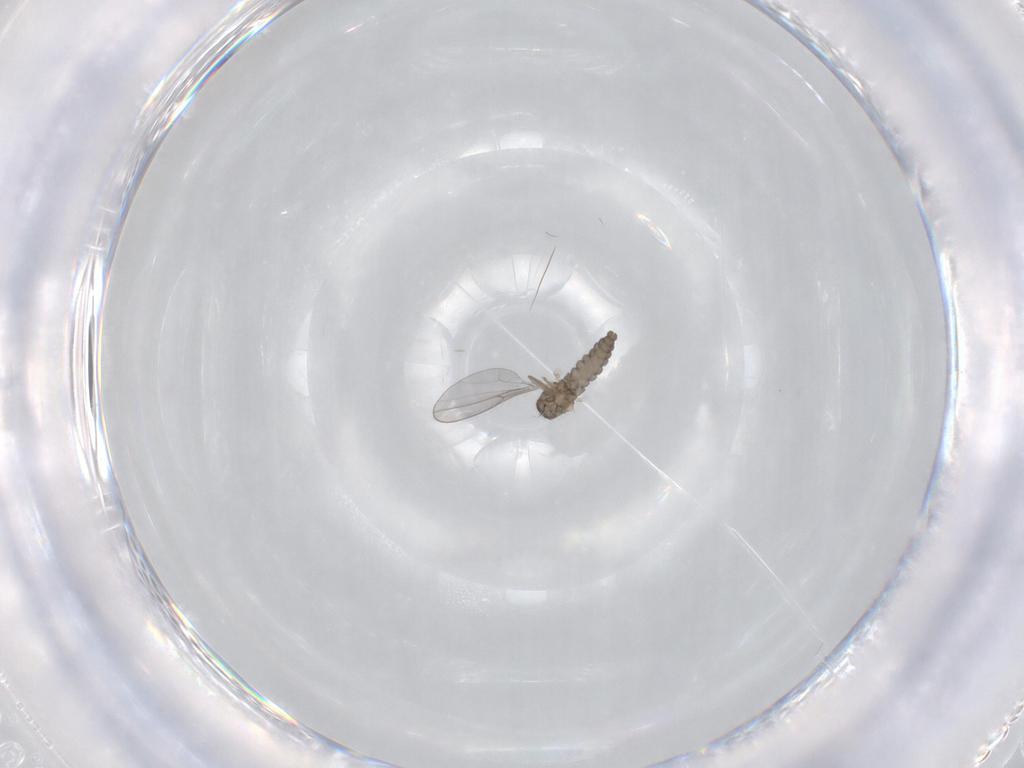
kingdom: Animalia
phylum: Arthropoda
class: Insecta
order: Diptera
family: Cecidomyiidae
